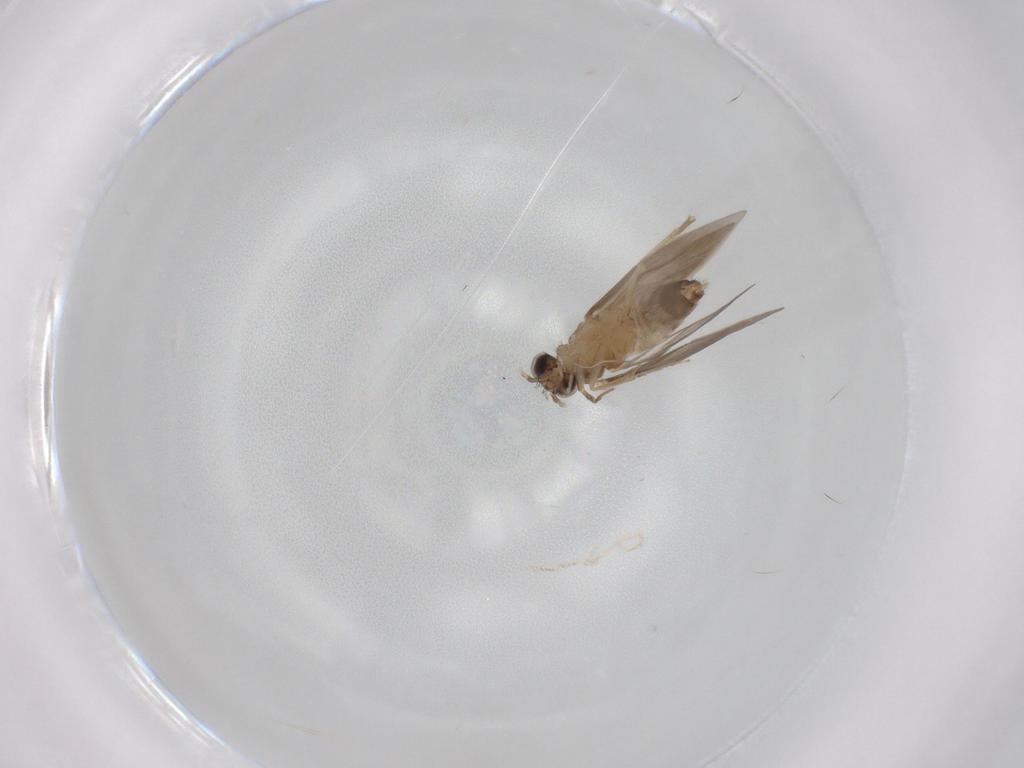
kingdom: Animalia
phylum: Arthropoda
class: Insecta
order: Trichoptera
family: Hydroptilidae
